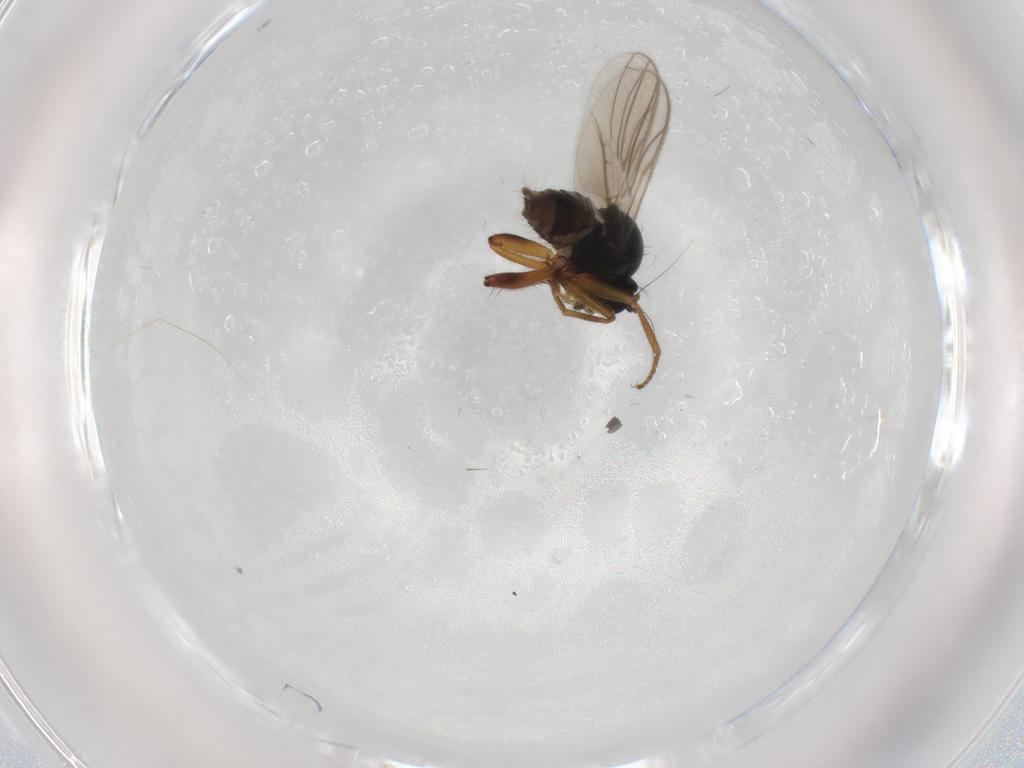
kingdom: Animalia
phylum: Arthropoda
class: Insecta
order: Diptera
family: Hybotidae
